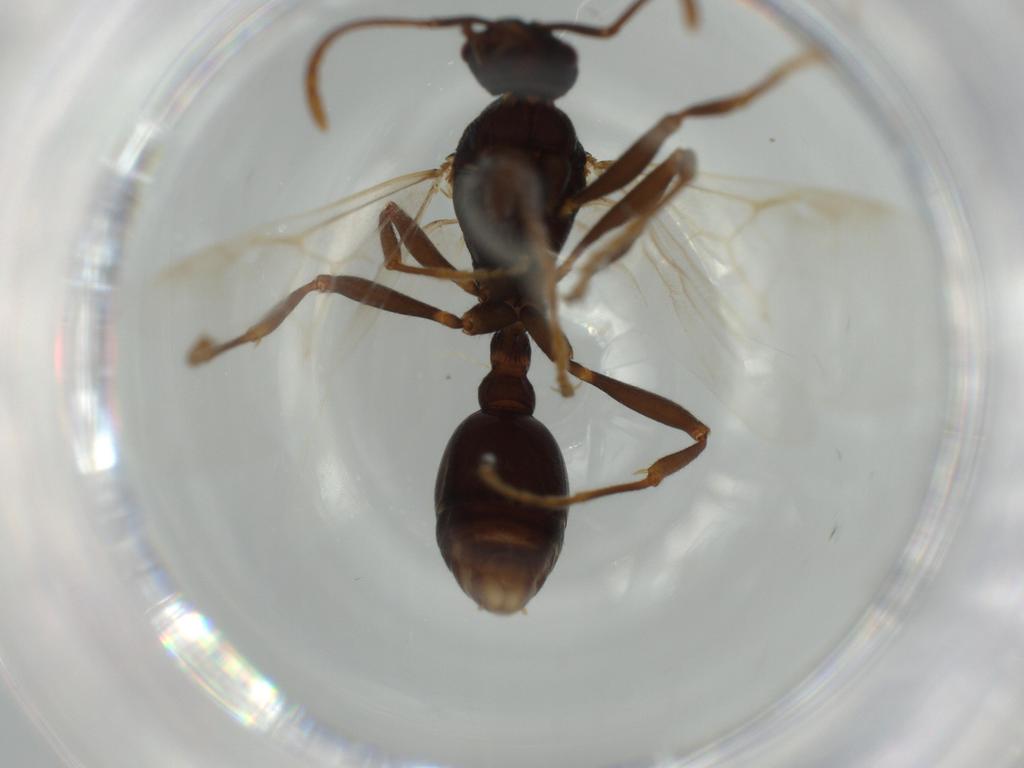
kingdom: Animalia
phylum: Arthropoda
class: Insecta
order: Hymenoptera
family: Formicidae
